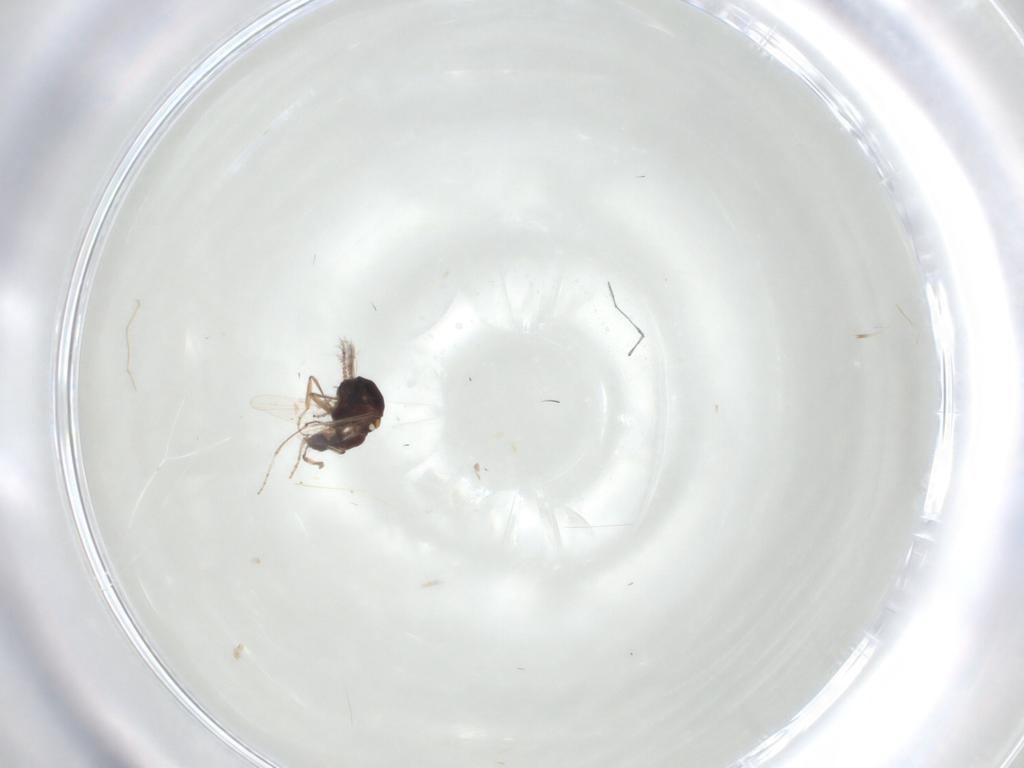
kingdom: Animalia
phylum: Arthropoda
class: Insecta
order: Diptera
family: Ceratopogonidae
